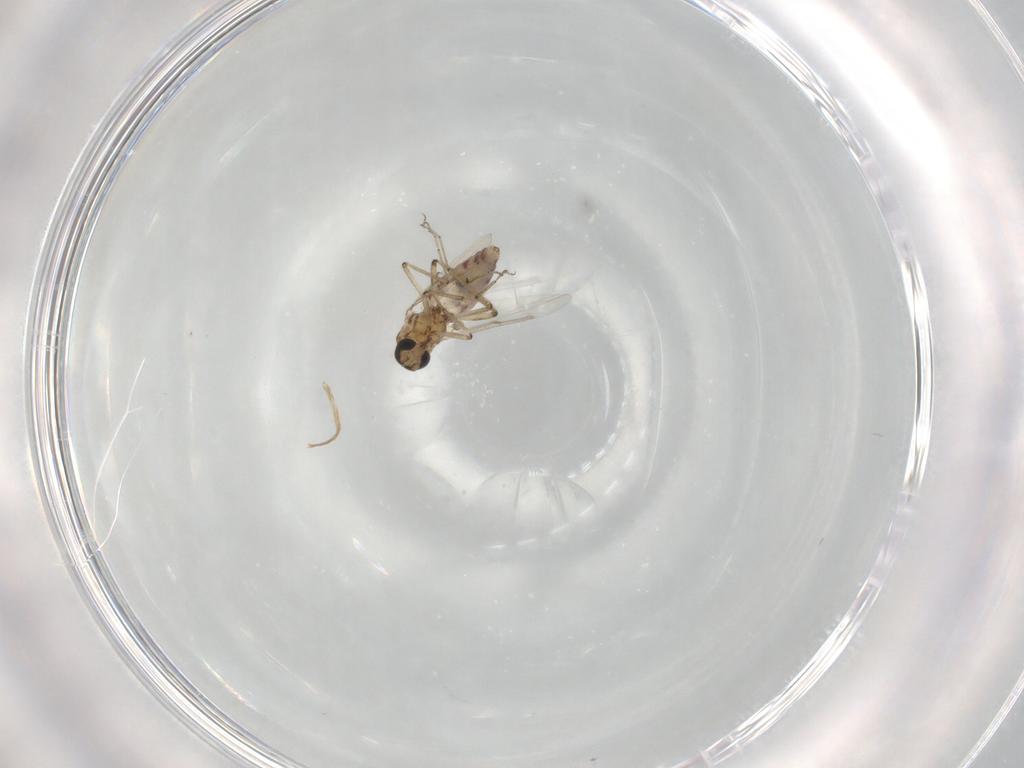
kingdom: Animalia
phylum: Arthropoda
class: Insecta
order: Diptera
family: Ceratopogonidae
